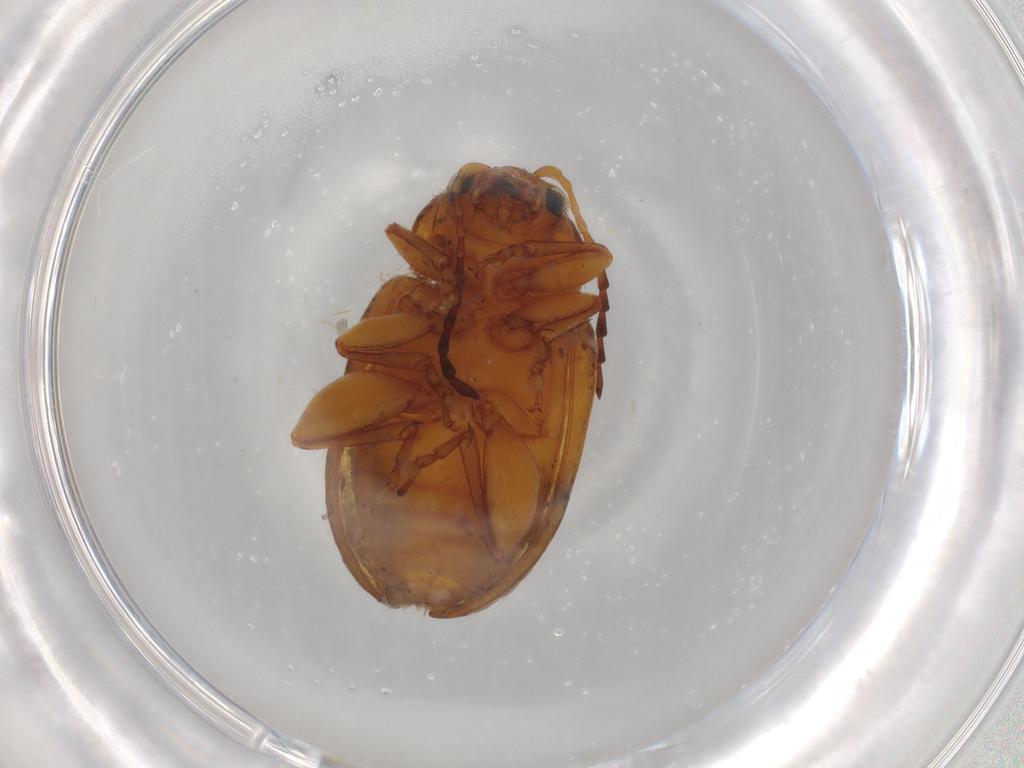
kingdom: Animalia
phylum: Arthropoda
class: Insecta
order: Coleoptera
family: Chrysomelidae
